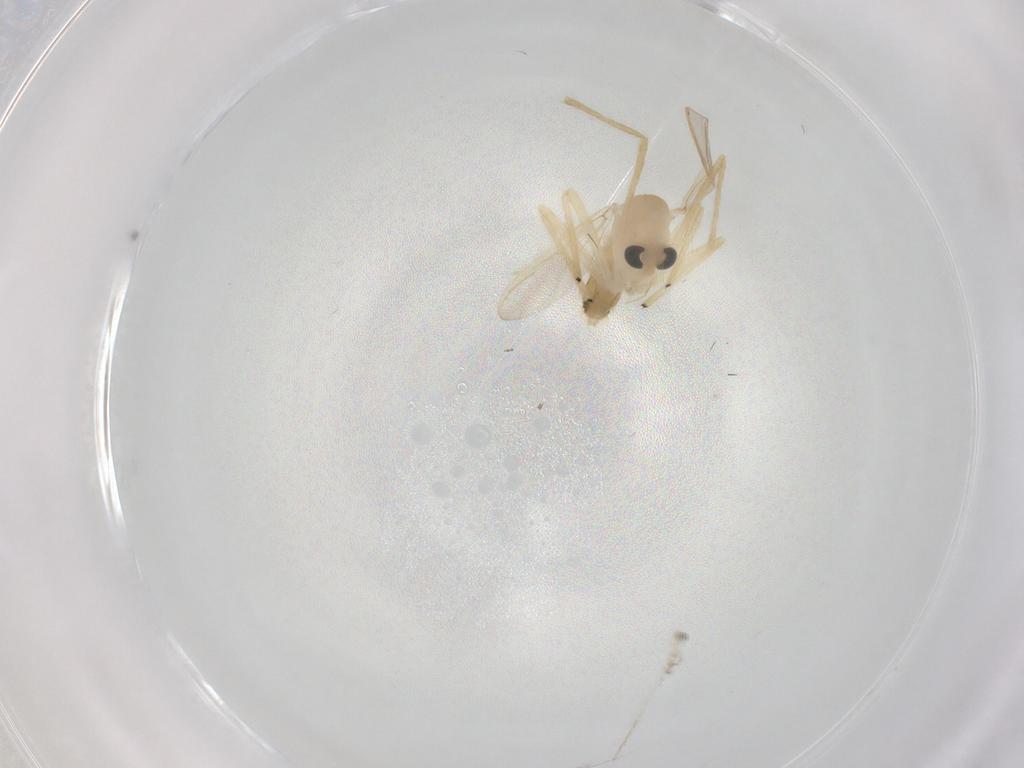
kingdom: Animalia
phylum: Arthropoda
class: Insecta
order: Diptera
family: Chironomidae
